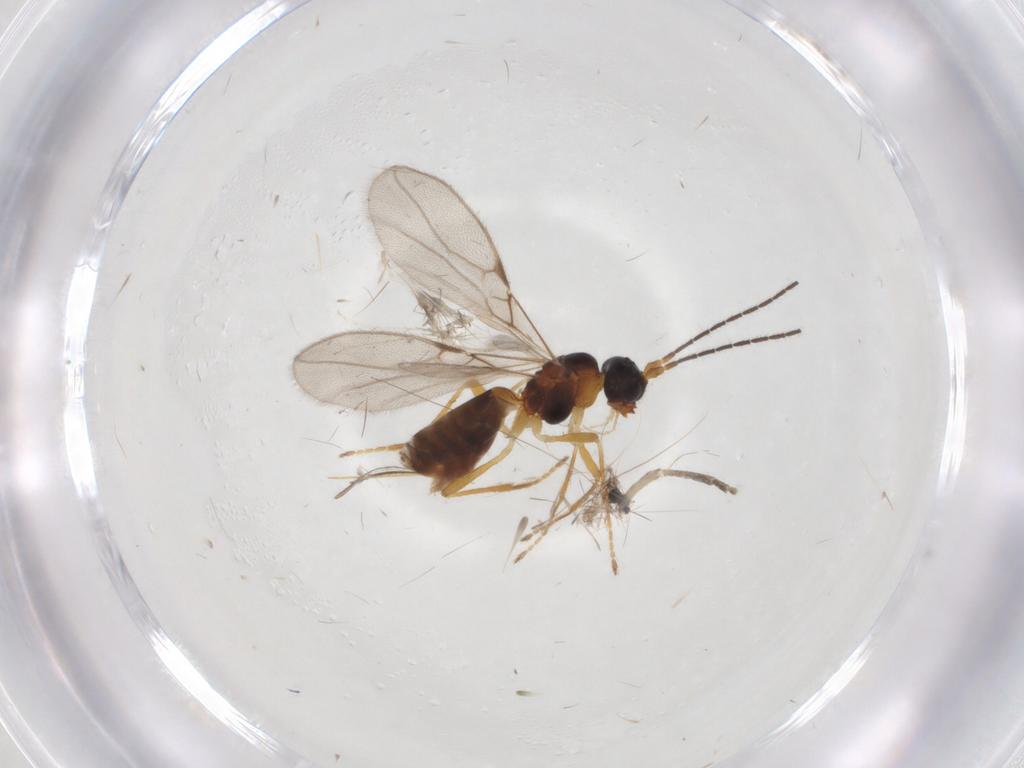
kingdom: Animalia
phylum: Arthropoda
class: Insecta
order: Hymenoptera
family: Braconidae
